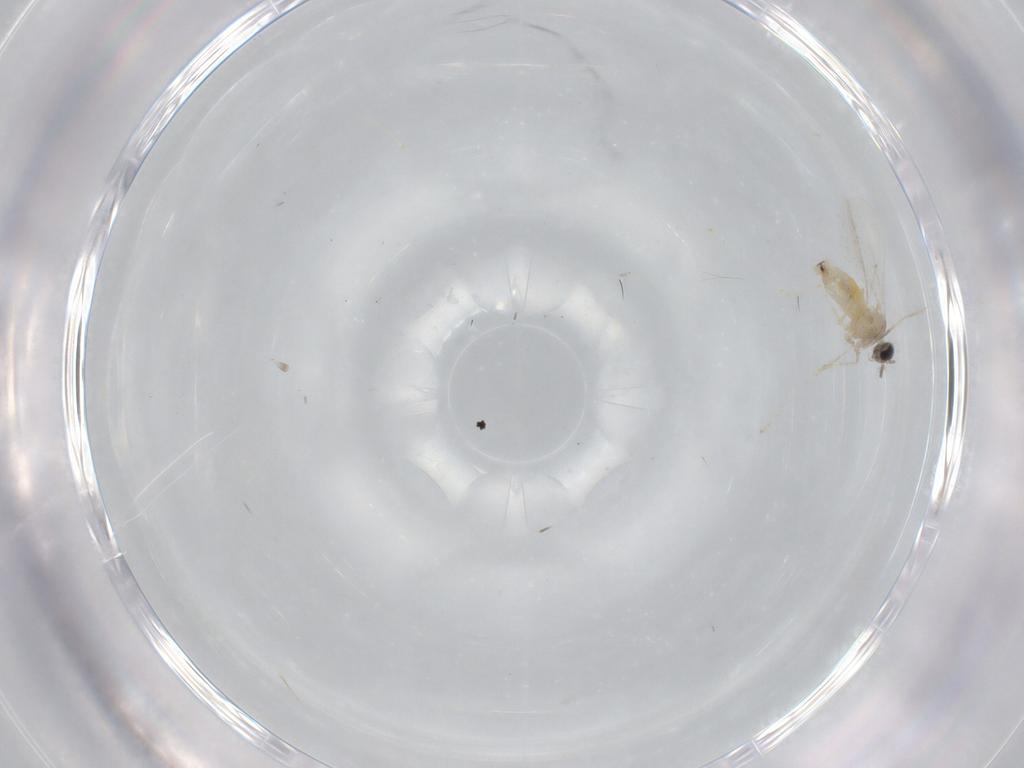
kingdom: Animalia
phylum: Arthropoda
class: Insecta
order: Diptera
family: Cecidomyiidae
